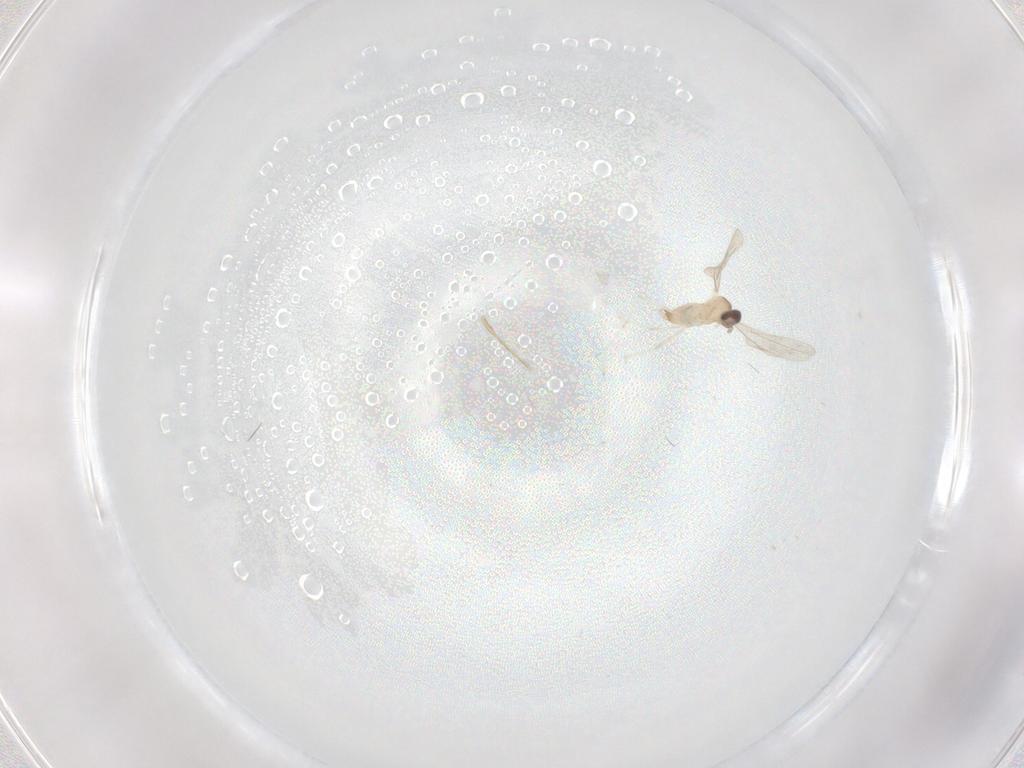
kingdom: Animalia
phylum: Arthropoda
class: Insecta
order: Diptera
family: Cecidomyiidae
